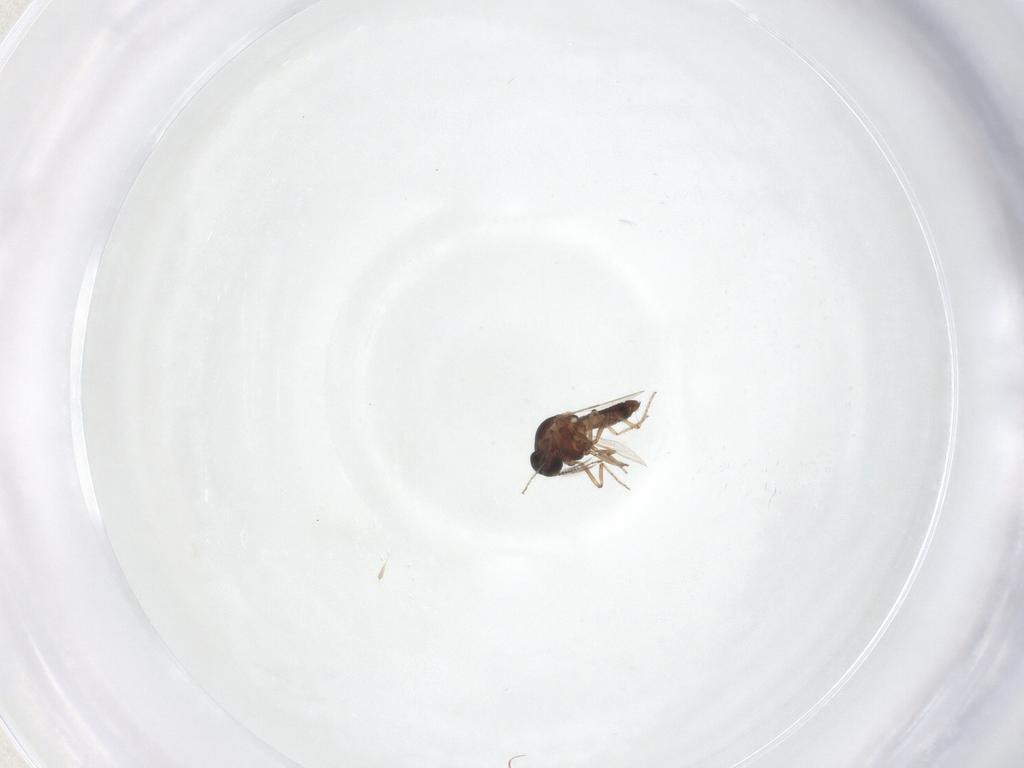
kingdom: Animalia
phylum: Arthropoda
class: Insecta
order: Diptera
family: Ceratopogonidae
